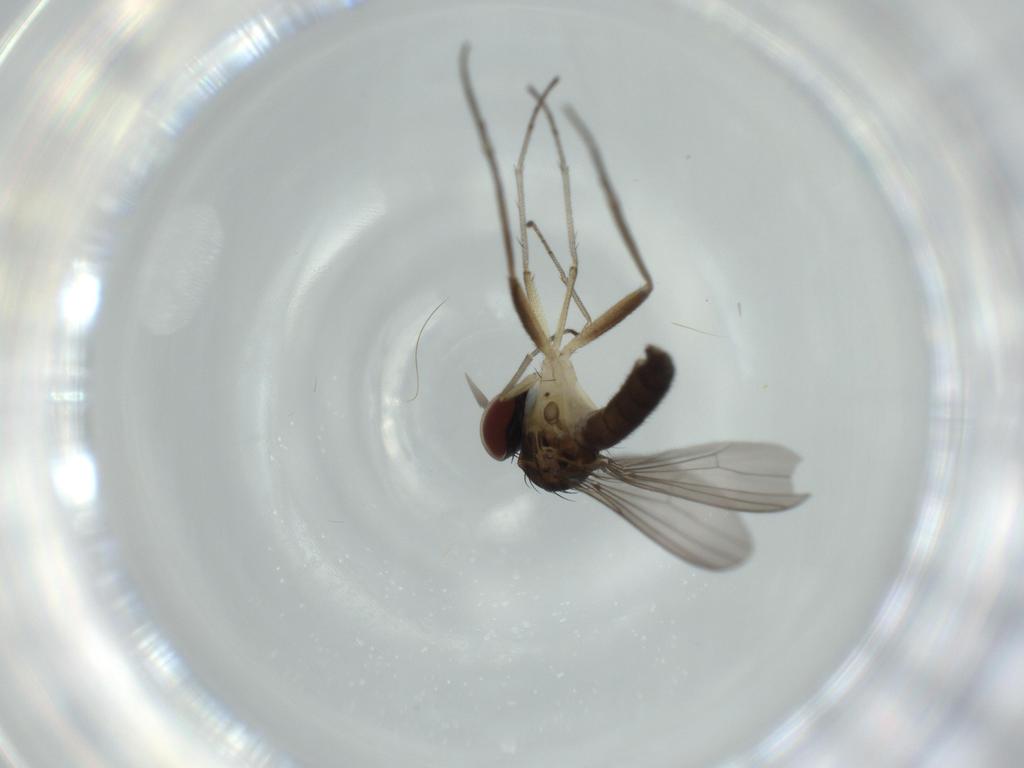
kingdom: Animalia
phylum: Arthropoda
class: Insecta
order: Diptera
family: Dolichopodidae
